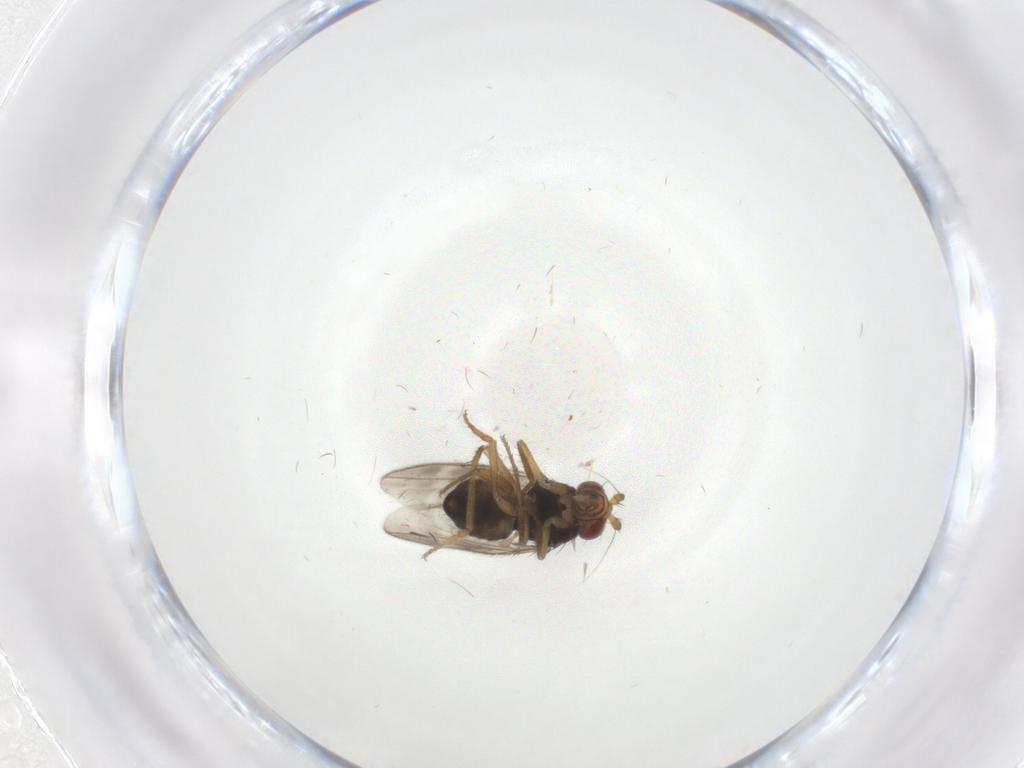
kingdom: Animalia
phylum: Arthropoda
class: Insecta
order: Diptera
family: Sphaeroceridae
